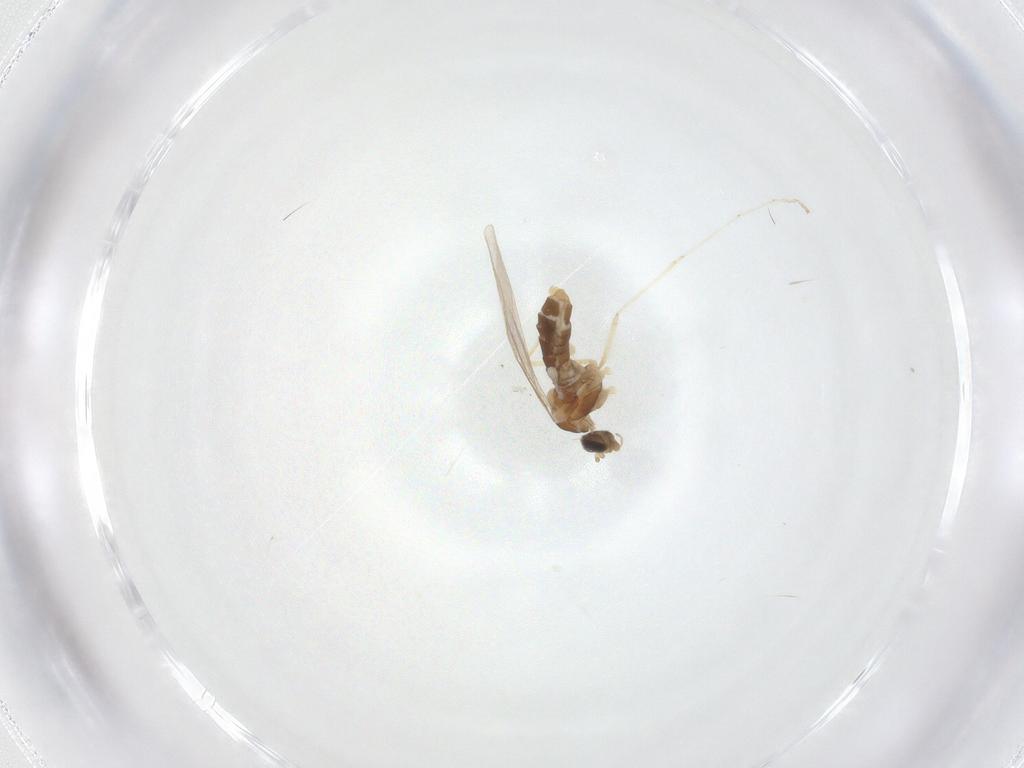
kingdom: Animalia
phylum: Arthropoda
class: Insecta
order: Diptera
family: Cecidomyiidae
